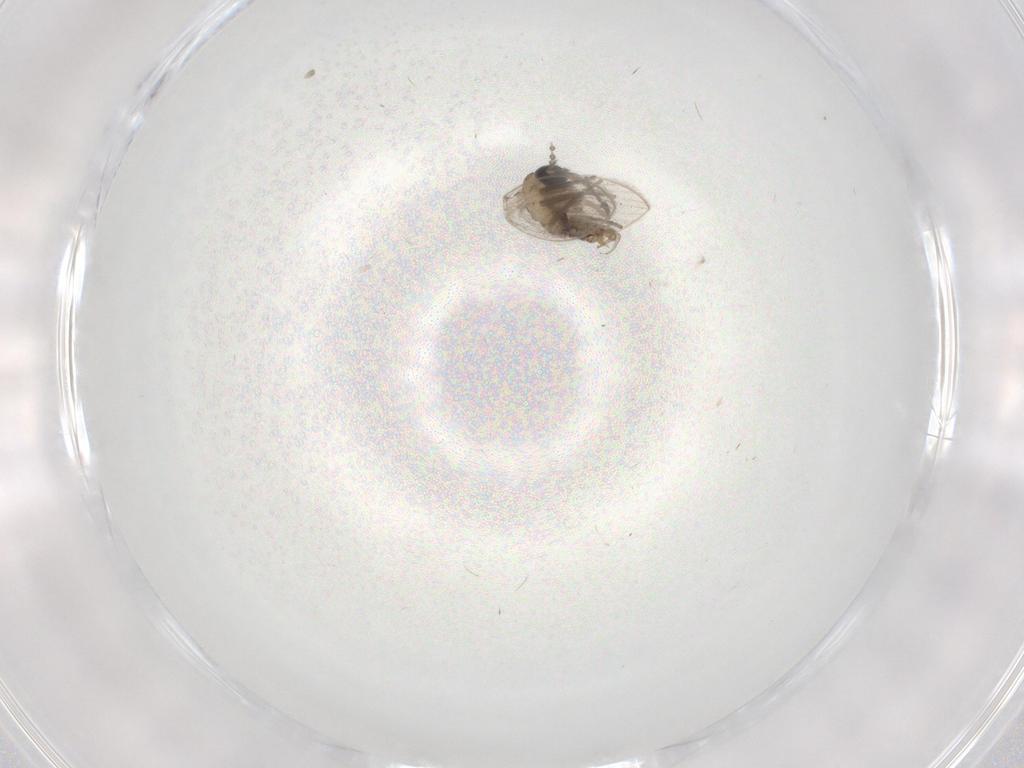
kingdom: Animalia
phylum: Arthropoda
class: Insecta
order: Diptera
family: Psychodidae
